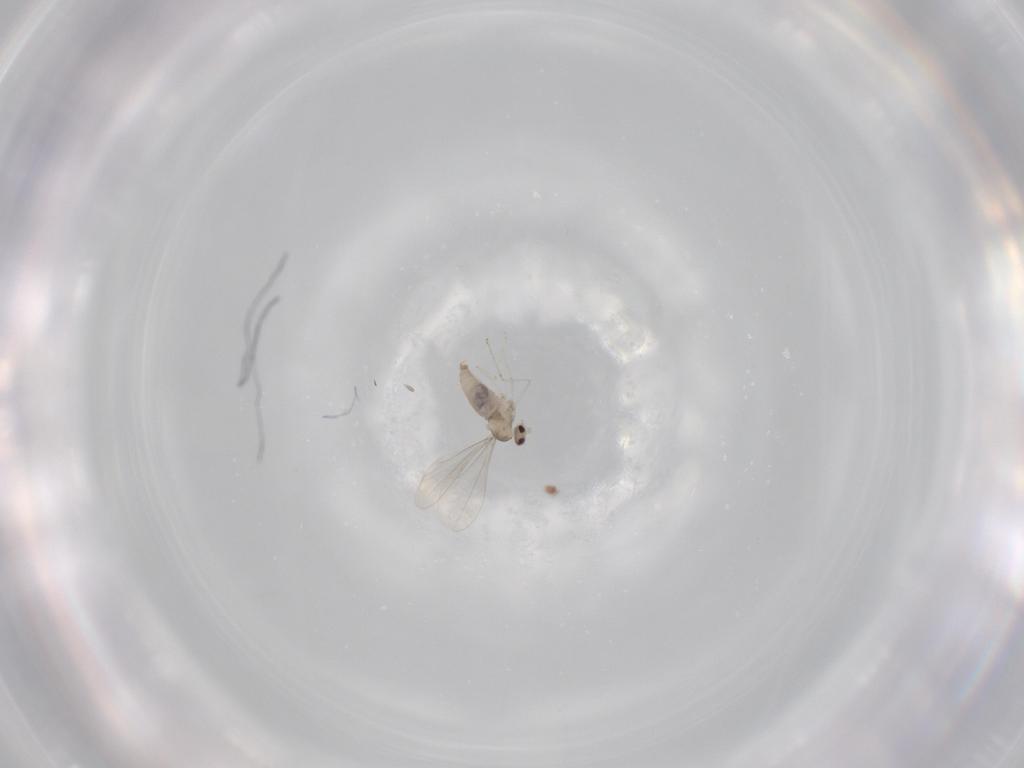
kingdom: Animalia
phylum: Arthropoda
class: Insecta
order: Diptera
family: Cecidomyiidae
